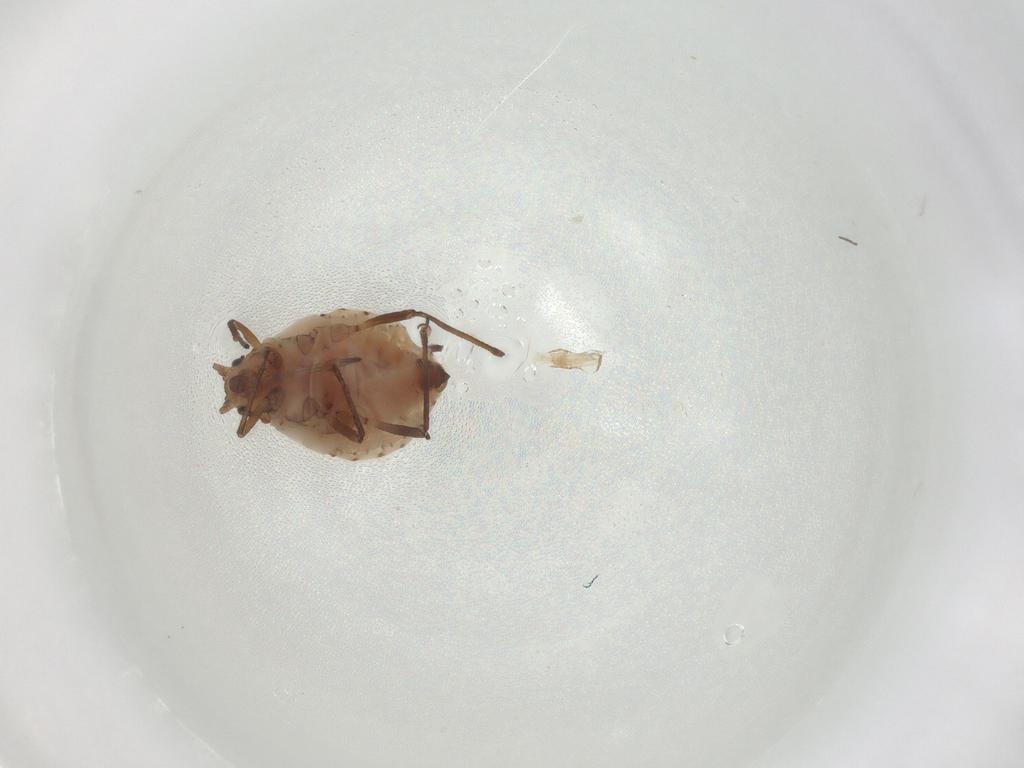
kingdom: Animalia
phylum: Arthropoda
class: Insecta
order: Hemiptera
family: Aphididae
